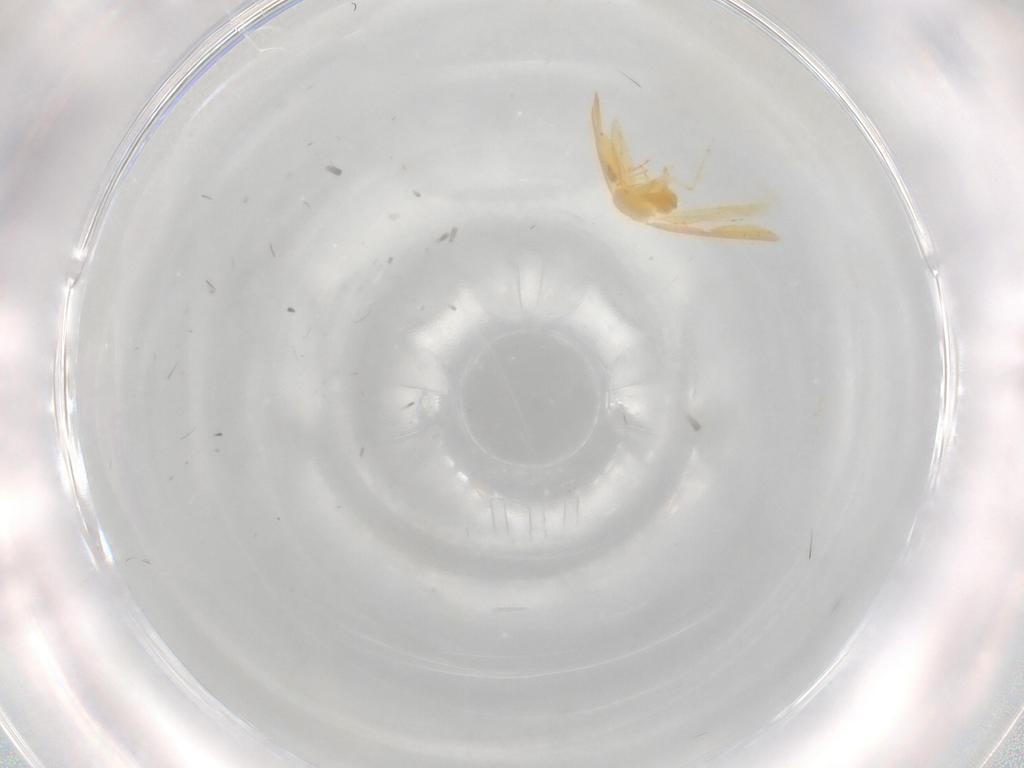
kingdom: Animalia
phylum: Arthropoda
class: Insecta
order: Hemiptera
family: Aleyrodidae
